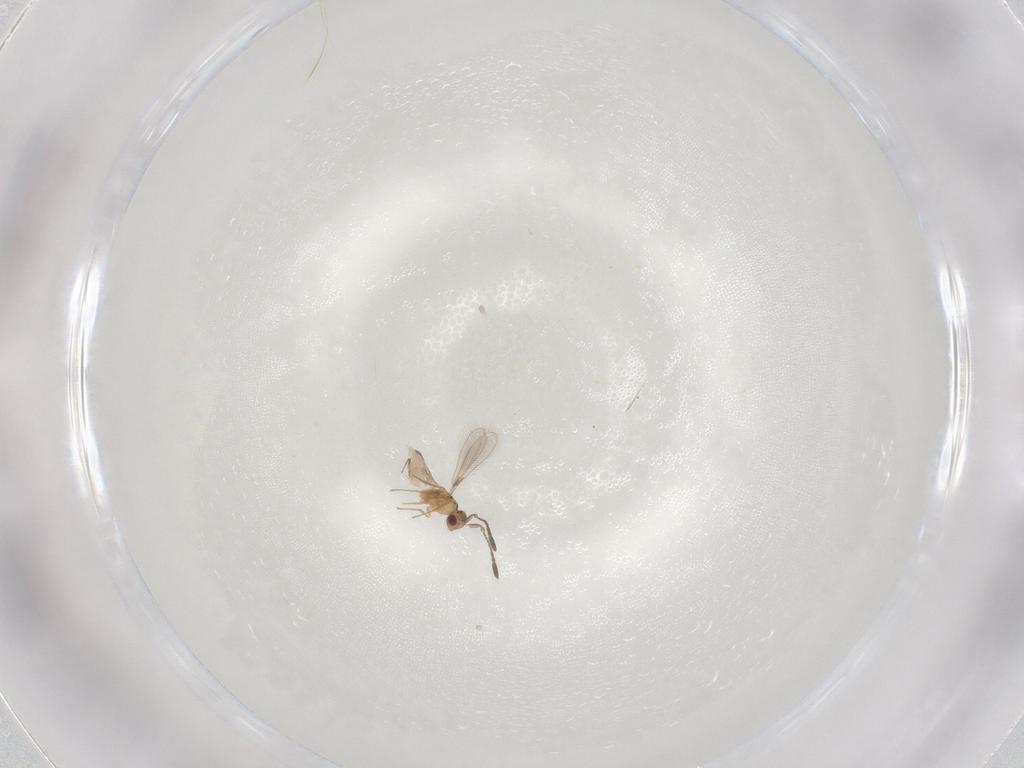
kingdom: Animalia
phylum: Arthropoda
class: Insecta
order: Hymenoptera
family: Mymaridae
